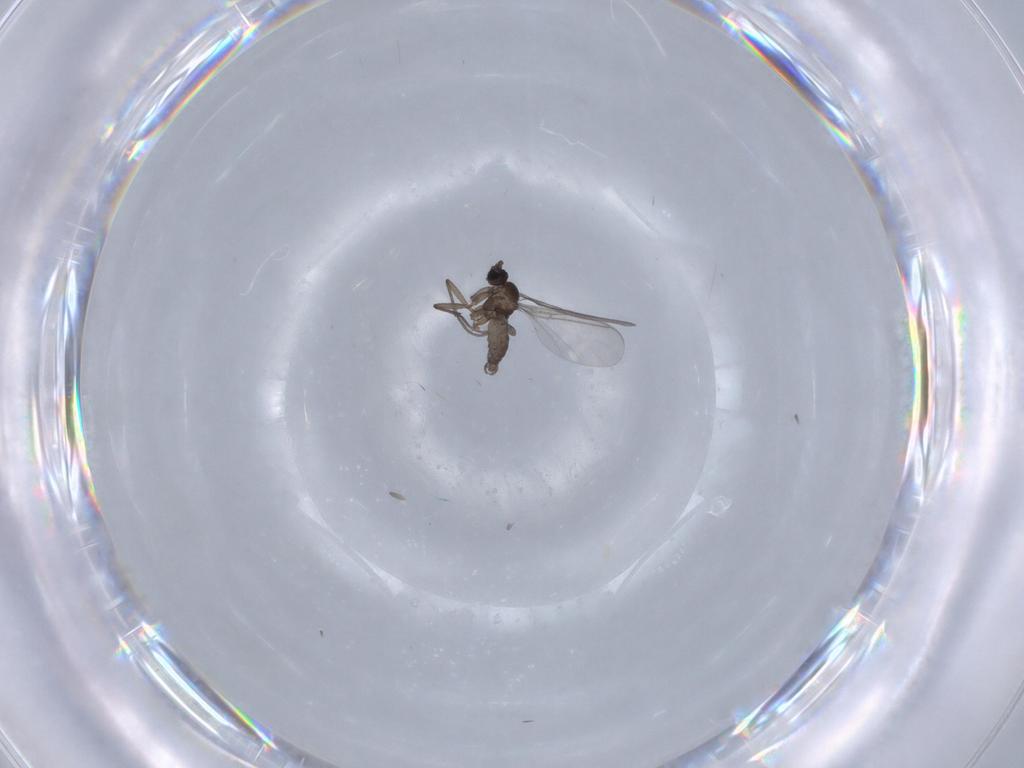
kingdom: Animalia
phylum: Arthropoda
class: Insecta
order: Diptera
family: Sciaridae
